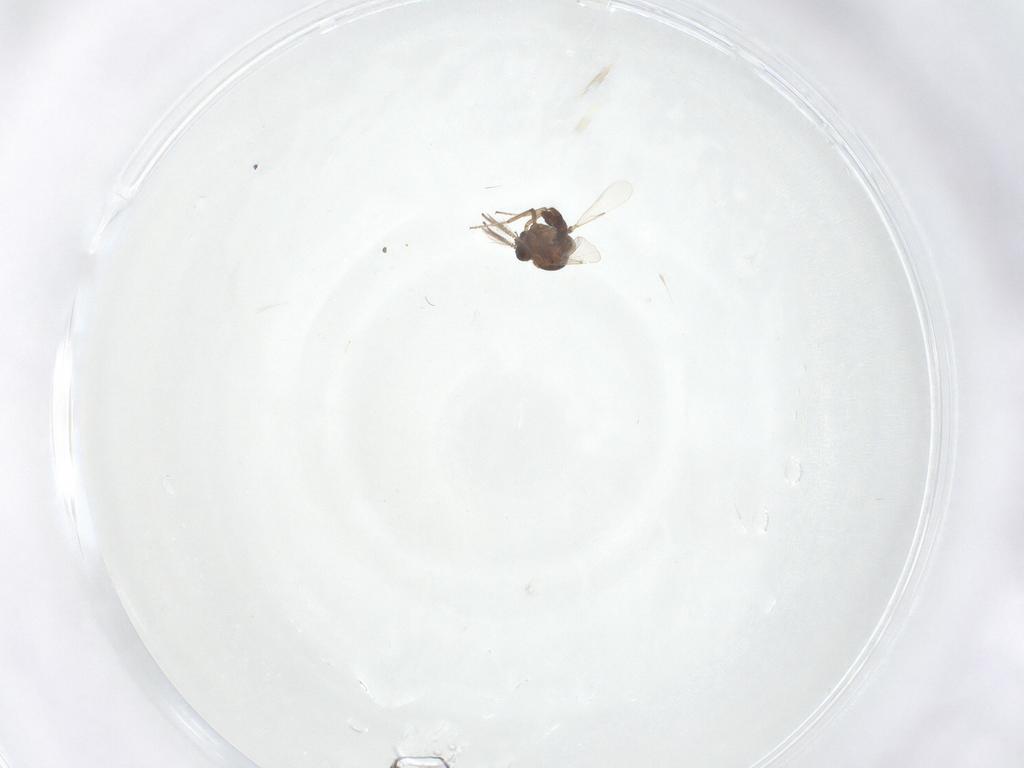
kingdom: Animalia
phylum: Arthropoda
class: Insecta
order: Diptera
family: Ceratopogonidae
